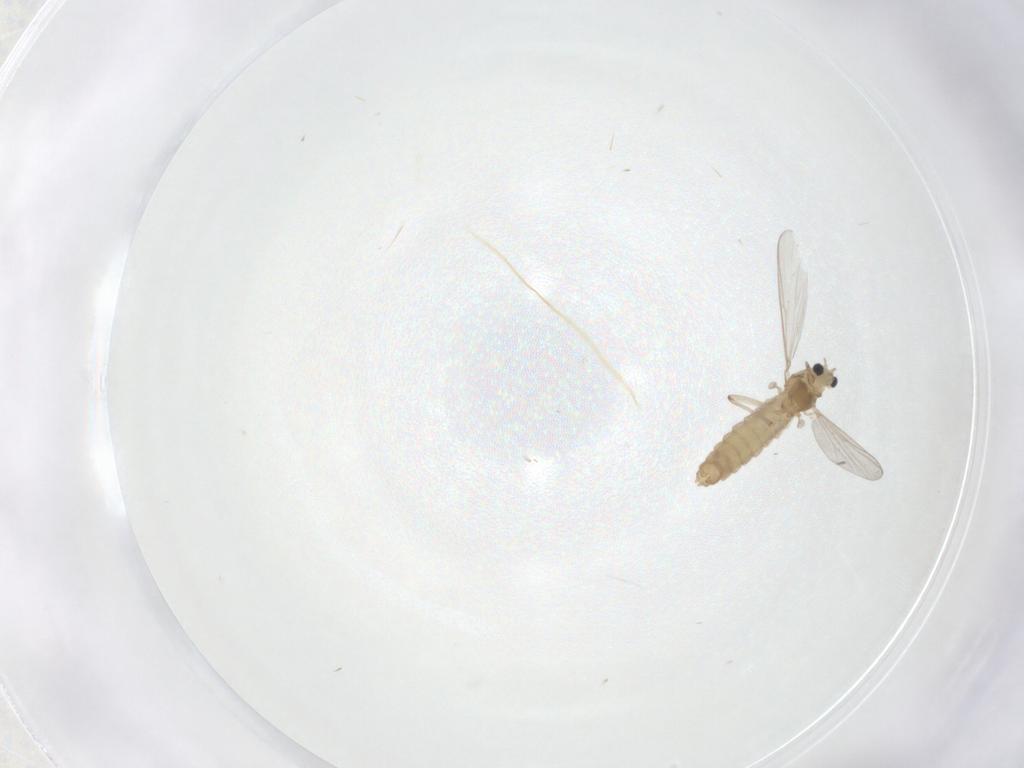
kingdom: Animalia
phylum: Arthropoda
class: Insecta
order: Diptera
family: Chironomidae
